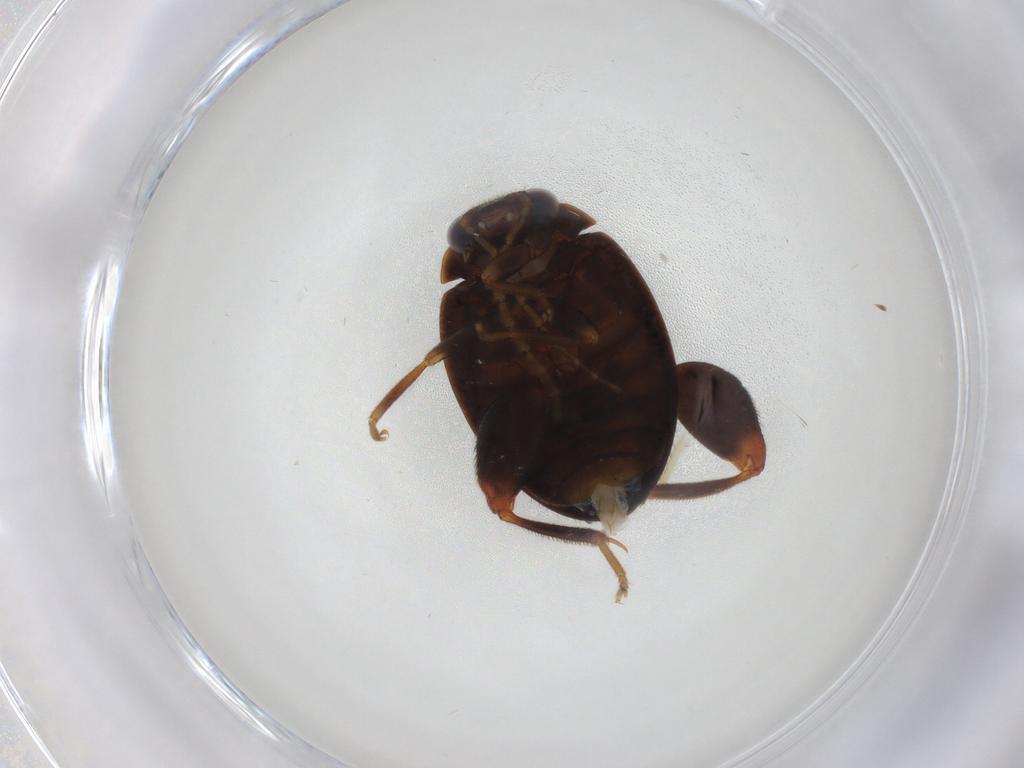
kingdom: Animalia
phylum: Arthropoda
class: Insecta
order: Coleoptera
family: Scirtidae
